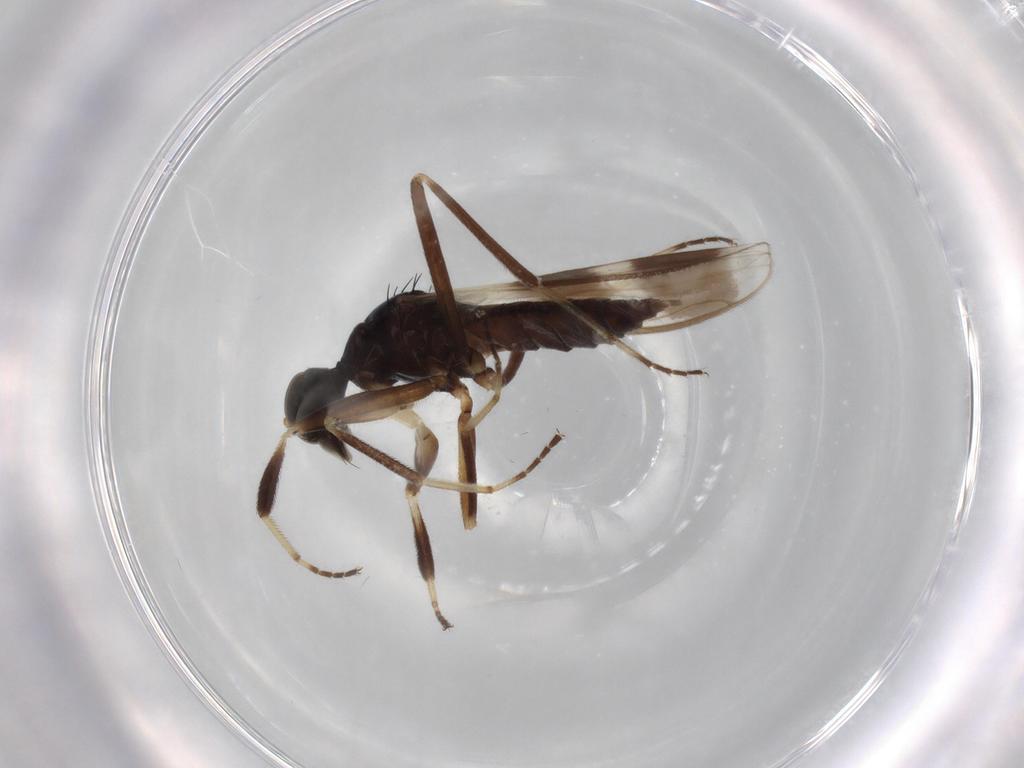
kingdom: Animalia
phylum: Arthropoda
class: Insecta
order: Diptera
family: Hybotidae
